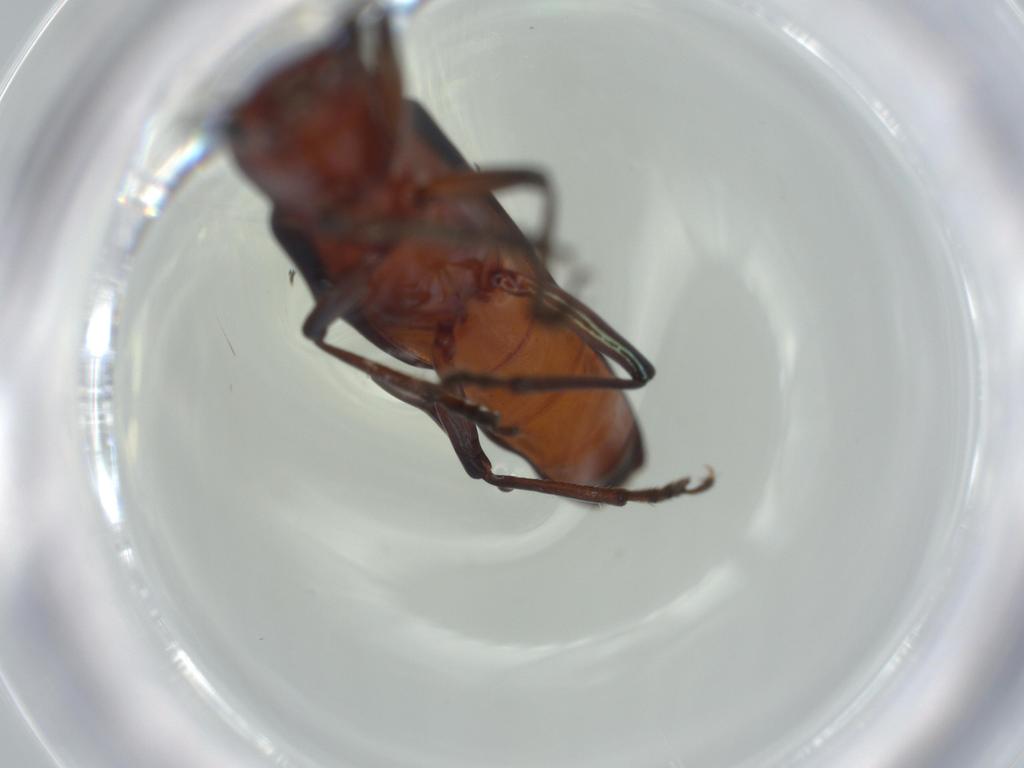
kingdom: Animalia
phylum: Arthropoda
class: Insecta
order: Coleoptera
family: Erotylidae
